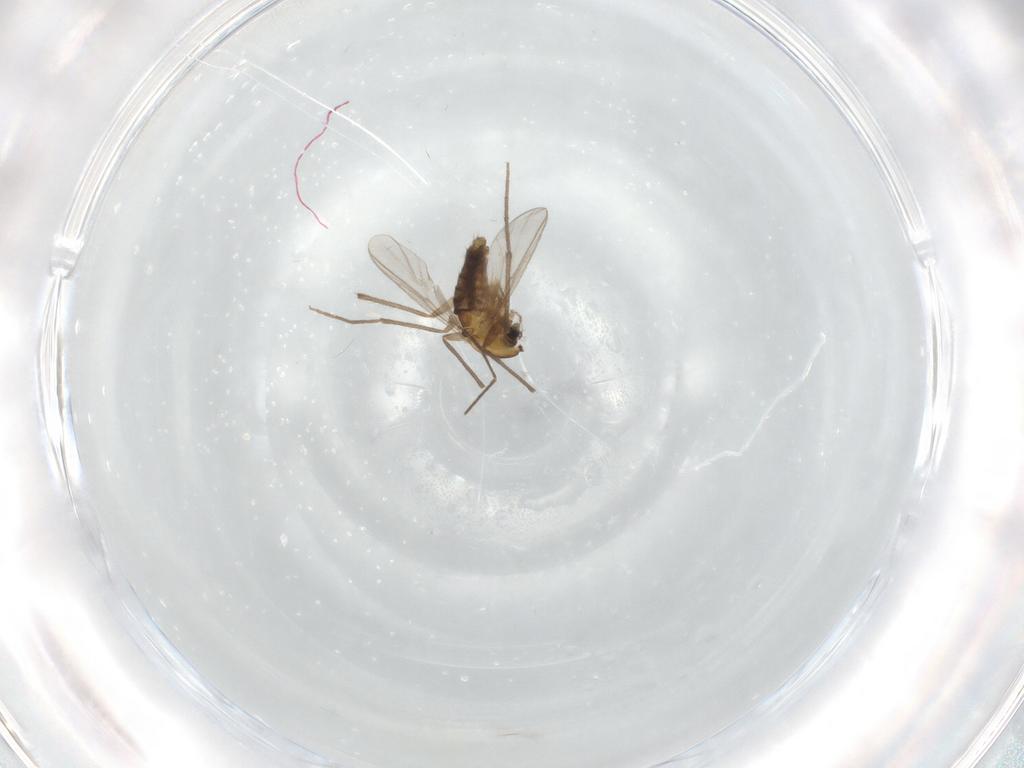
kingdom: Animalia
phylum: Arthropoda
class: Insecta
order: Diptera
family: Chironomidae
